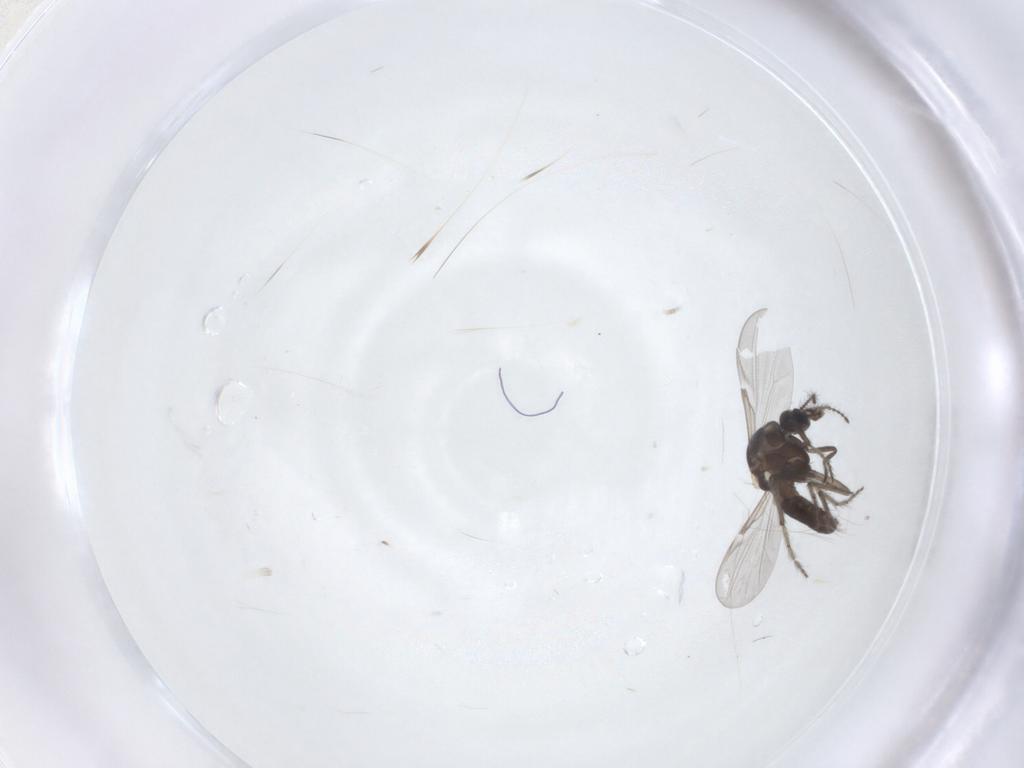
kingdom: Animalia
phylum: Arthropoda
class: Insecta
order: Diptera
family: Ceratopogonidae
